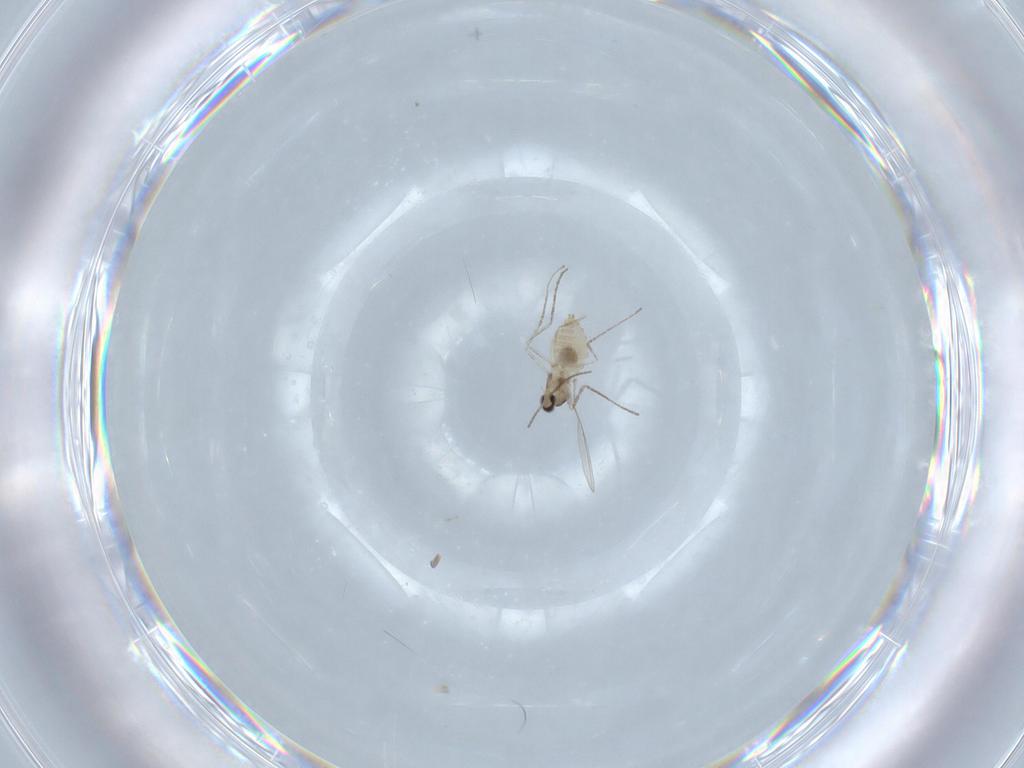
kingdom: Animalia
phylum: Arthropoda
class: Insecta
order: Diptera
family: Cecidomyiidae
